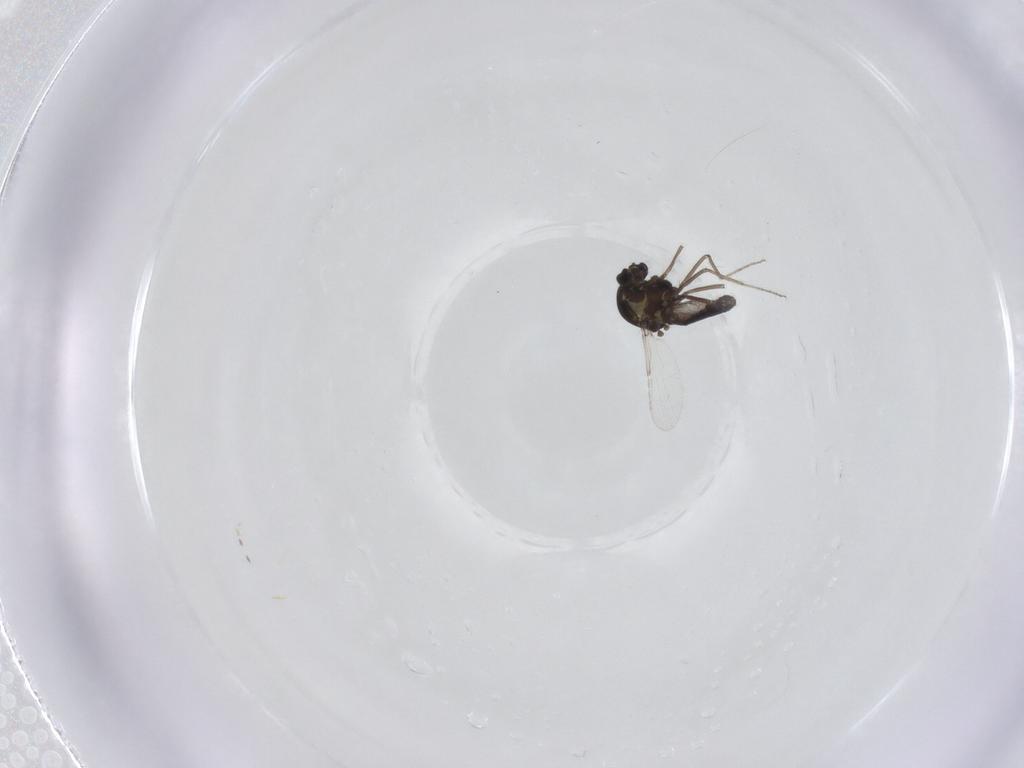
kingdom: Animalia
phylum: Arthropoda
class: Insecta
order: Diptera
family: Ceratopogonidae
